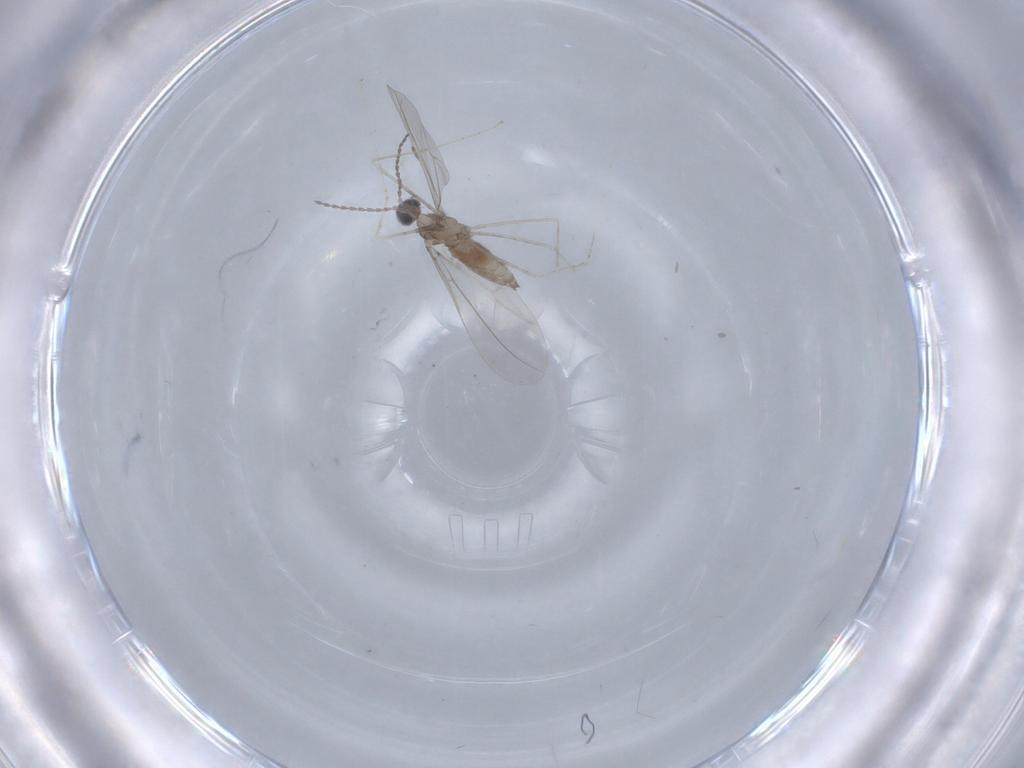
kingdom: Animalia
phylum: Arthropoda
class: Insecta
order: Diptera
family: Cecidomyiidae
